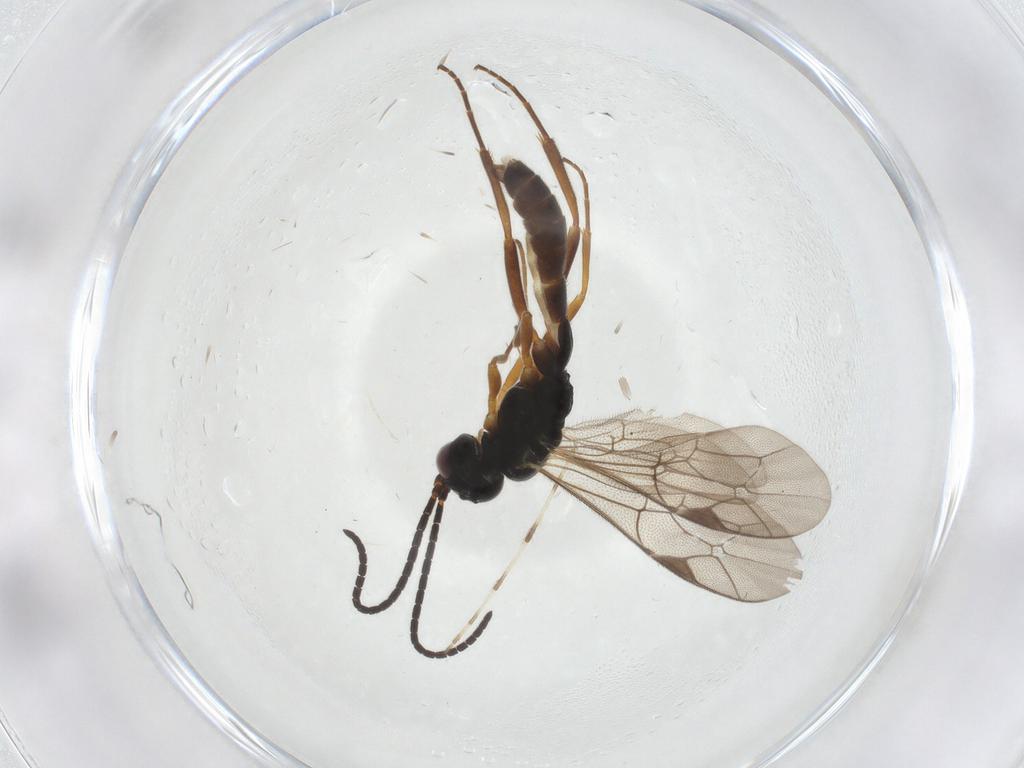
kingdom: Animalia
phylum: Arthropoda
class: Insecta
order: Hymenoptera
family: Ichneumonidae
